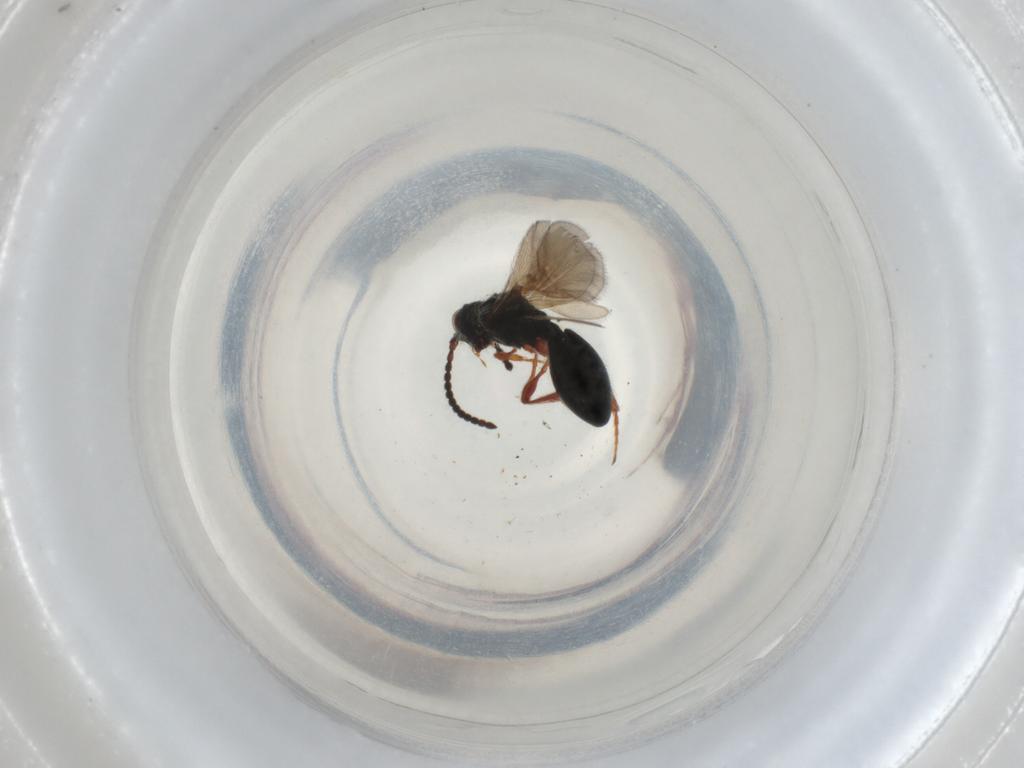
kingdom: Animalia
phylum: Arthropoda
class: Insecta
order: Hymenoptera
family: Diapriidae
